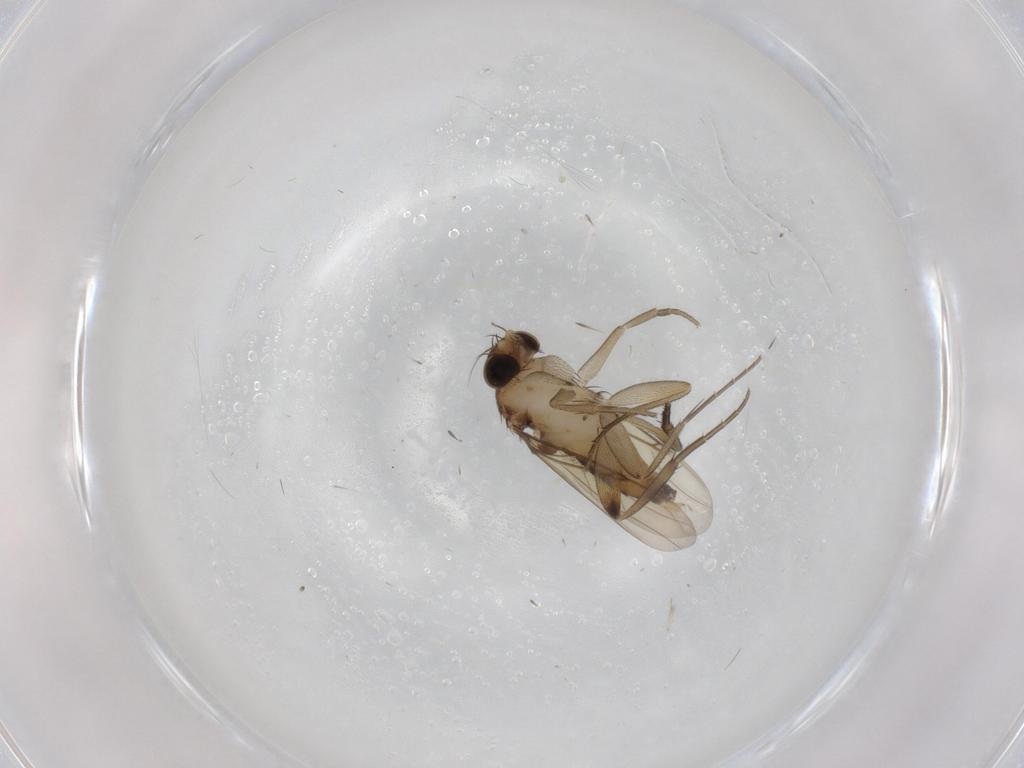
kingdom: Animalia
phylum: Arthropoda
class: Insecta
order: Diptera
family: Phoridae
